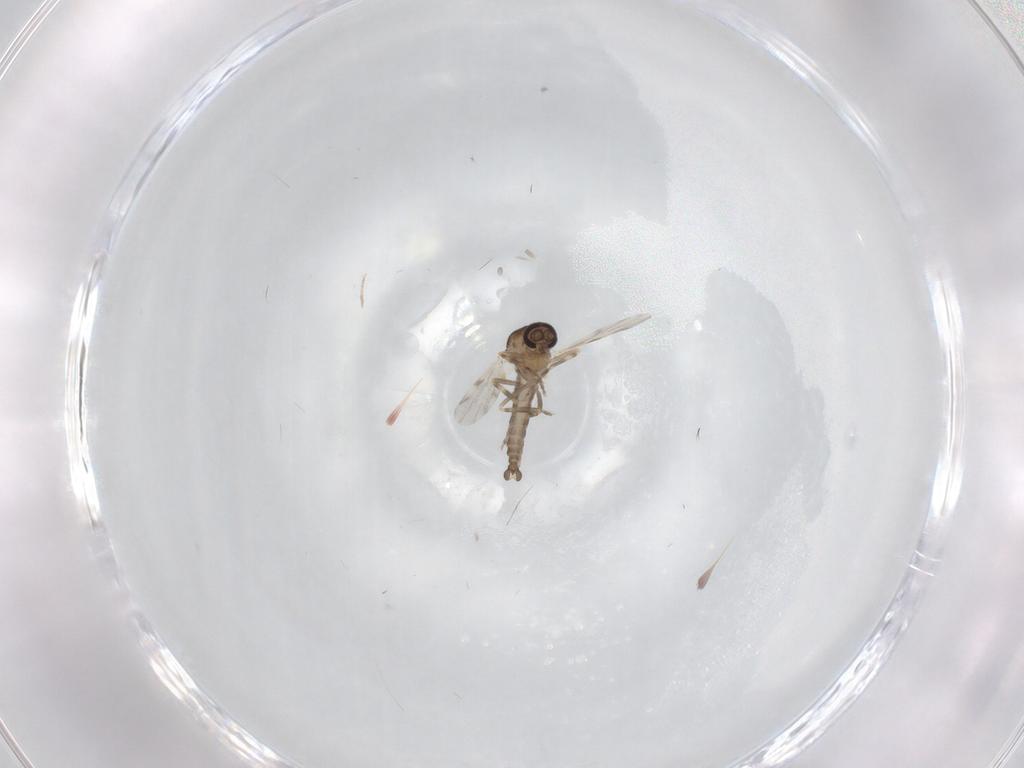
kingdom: Animalia
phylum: Arthropoda
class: Insecta
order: Diptera
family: Ceratopogonidae
